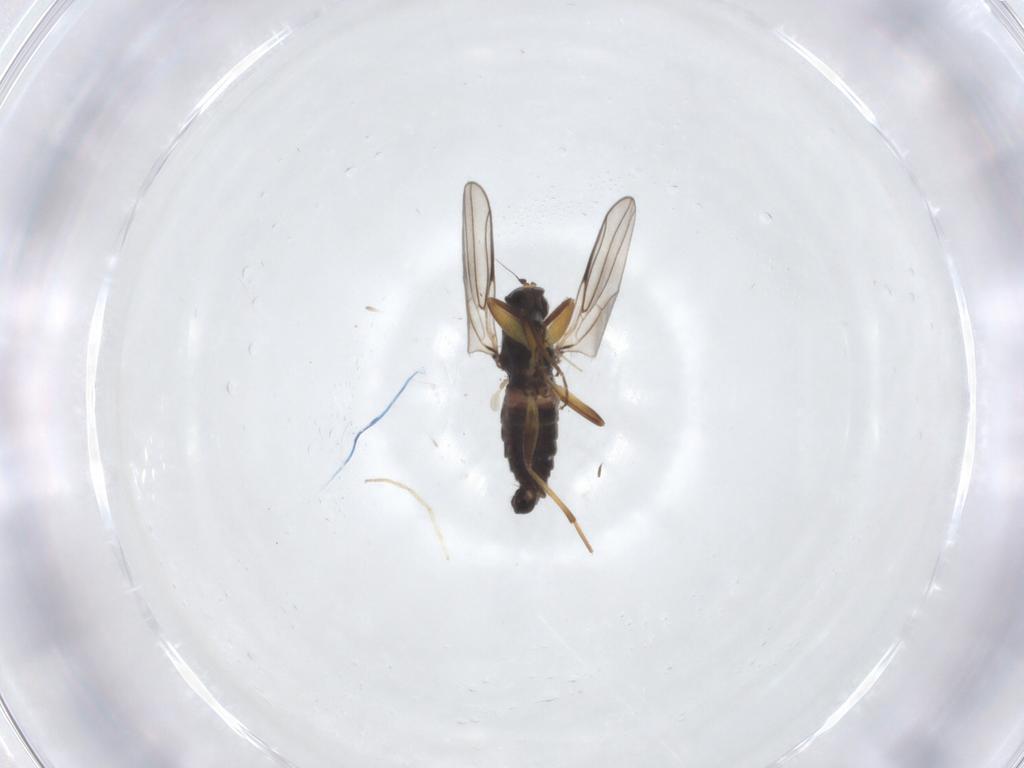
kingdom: Animalia
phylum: Arthropoda
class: Insecta
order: Diptera
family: Hybotidae
